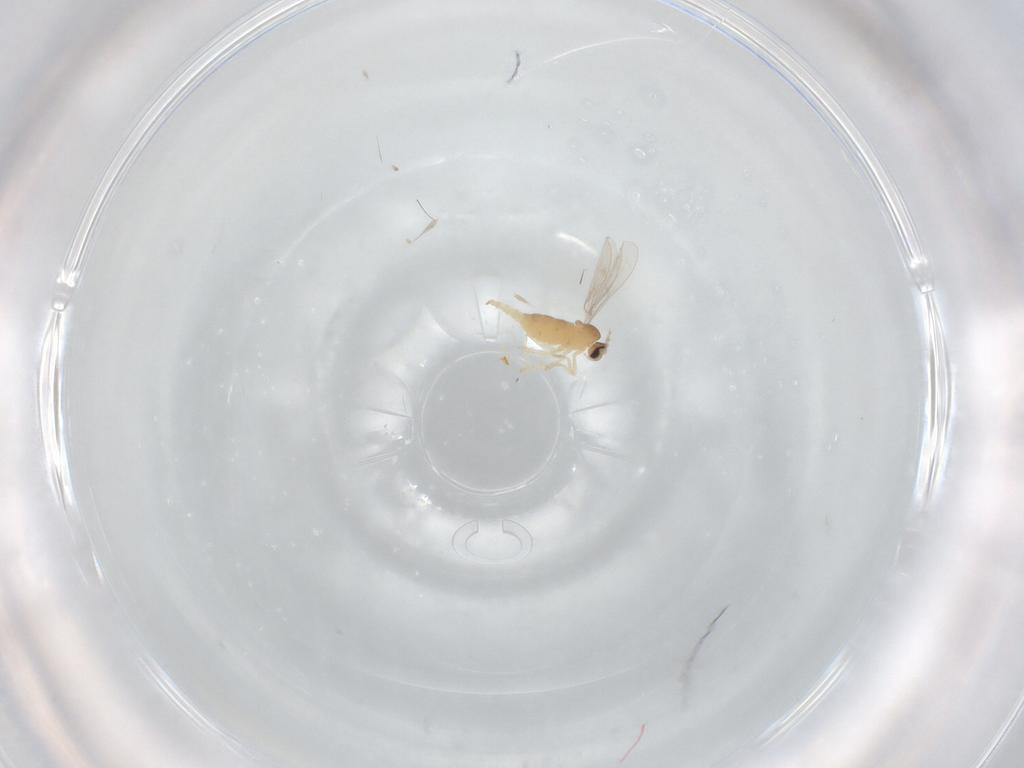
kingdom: Animalia
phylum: Arthropoda
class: Insecta
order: Diptera
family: Cecidomyiidae
